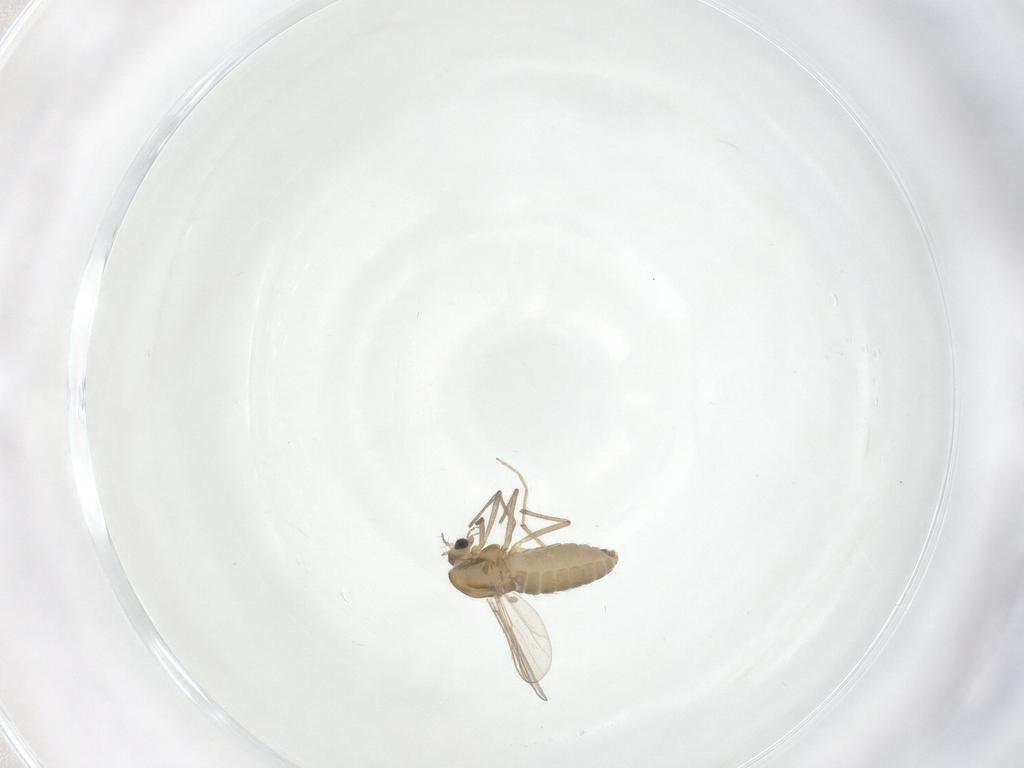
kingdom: Animalia
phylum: Arthropoda
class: Insecta
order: Diptera
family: Chironomidae
